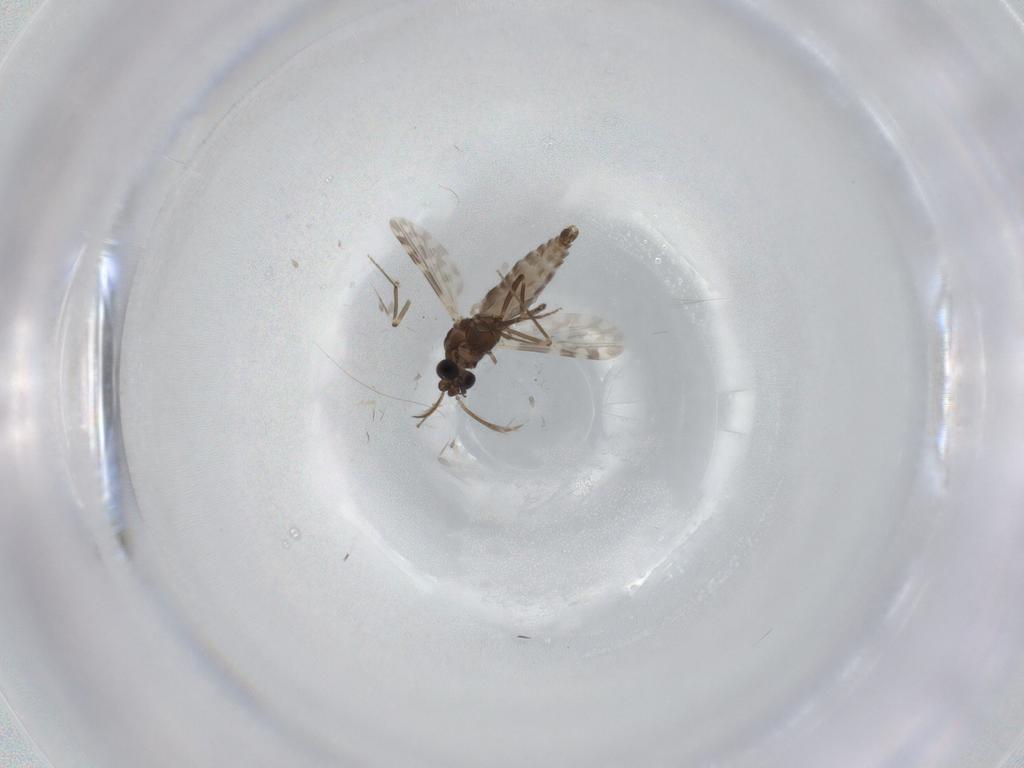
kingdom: Animalia
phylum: Arthropoda
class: Insecta
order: Diptera
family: Ceratopogonidae
